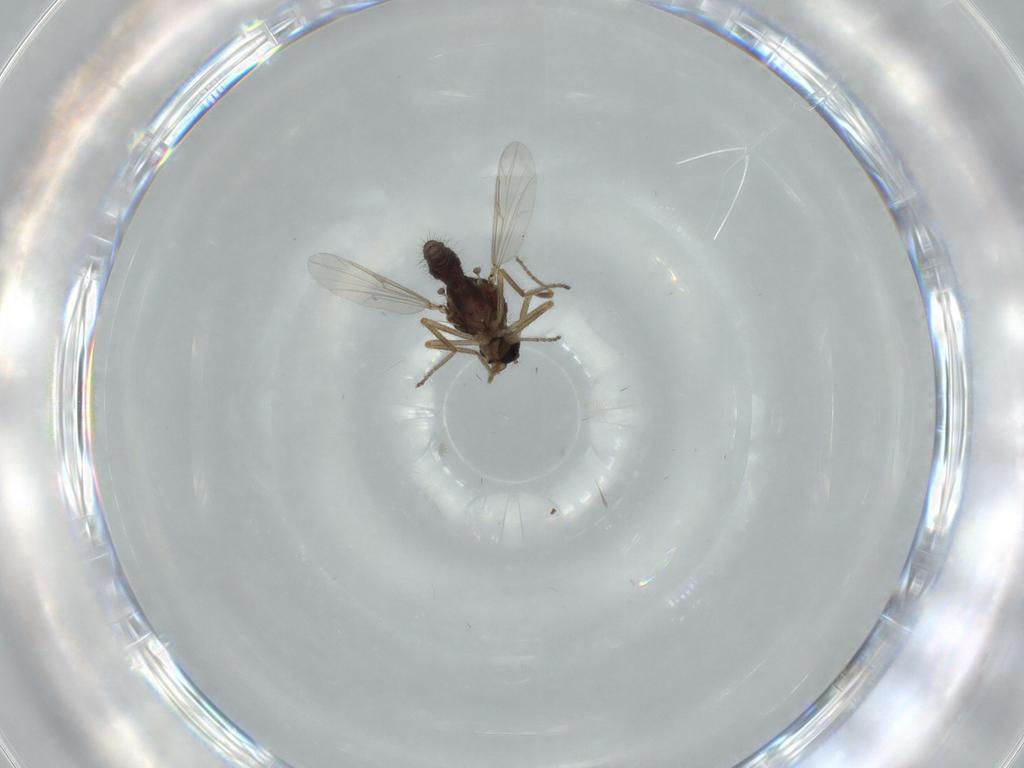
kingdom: Animalia
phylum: Arthropoda
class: Insecta
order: Diptera
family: Ceratopogonidae
